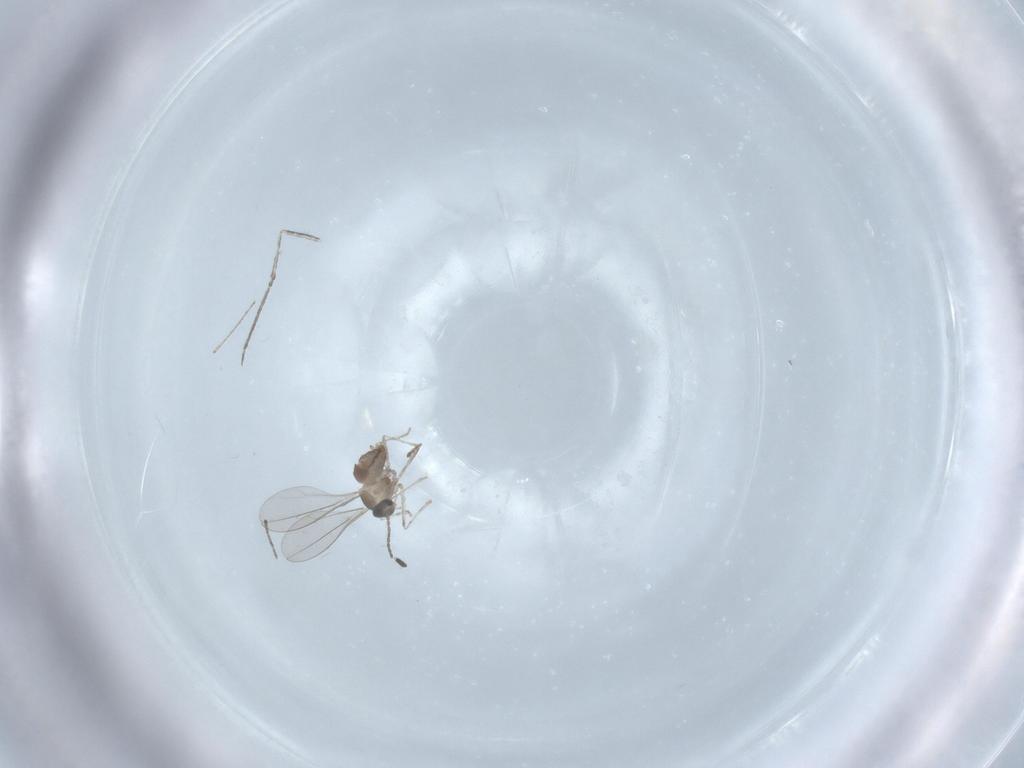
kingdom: Animalia
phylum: Arthropoda
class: Insecta
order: Diptera
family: Cecidomyiidae
